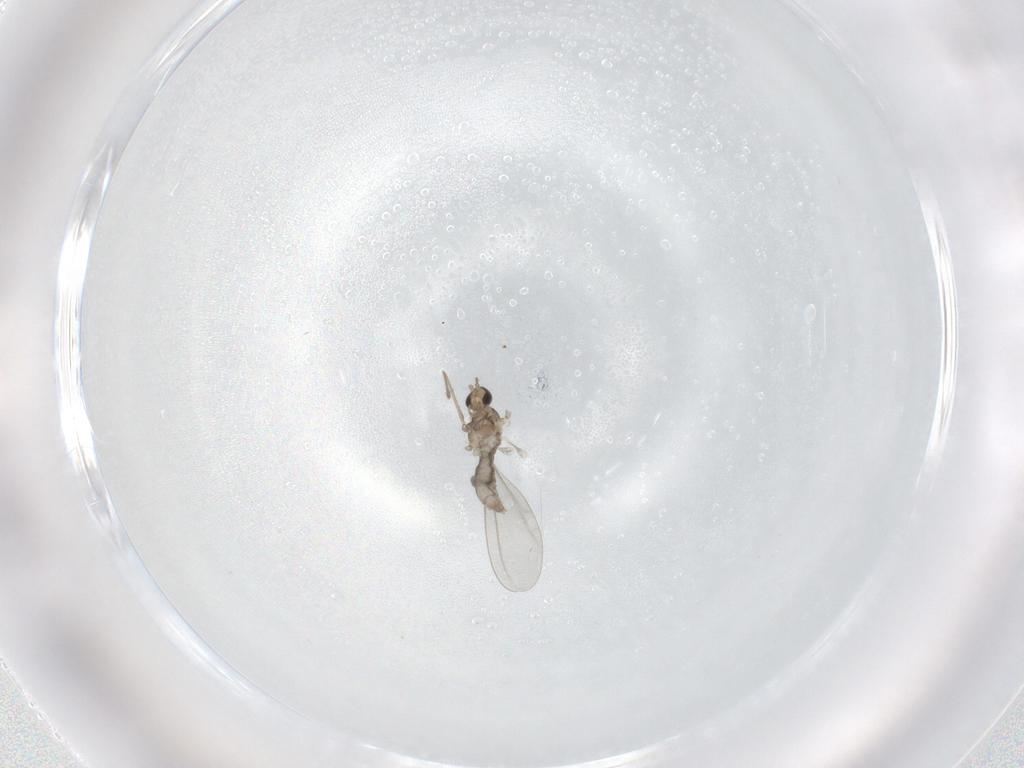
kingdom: Animalia
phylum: Arthropoda
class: Insecta
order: Diptera
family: Cecidomyiidae
